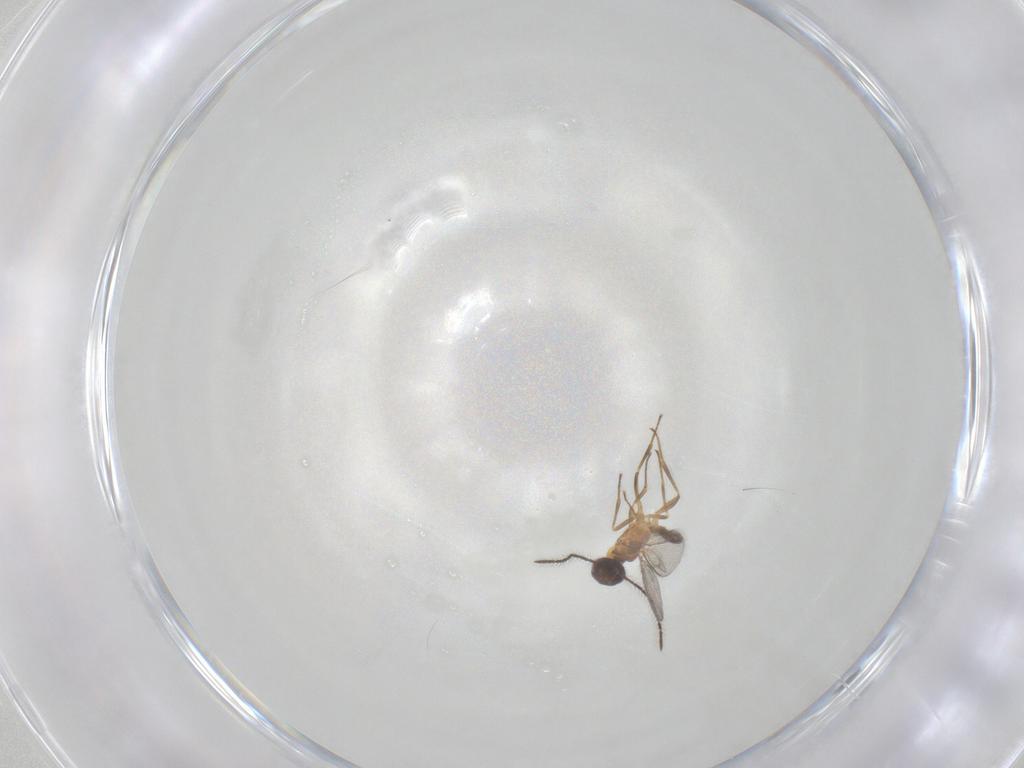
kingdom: Animalia
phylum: Arthropoda
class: Insecta
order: Hymenoptera
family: Eupelmidae
